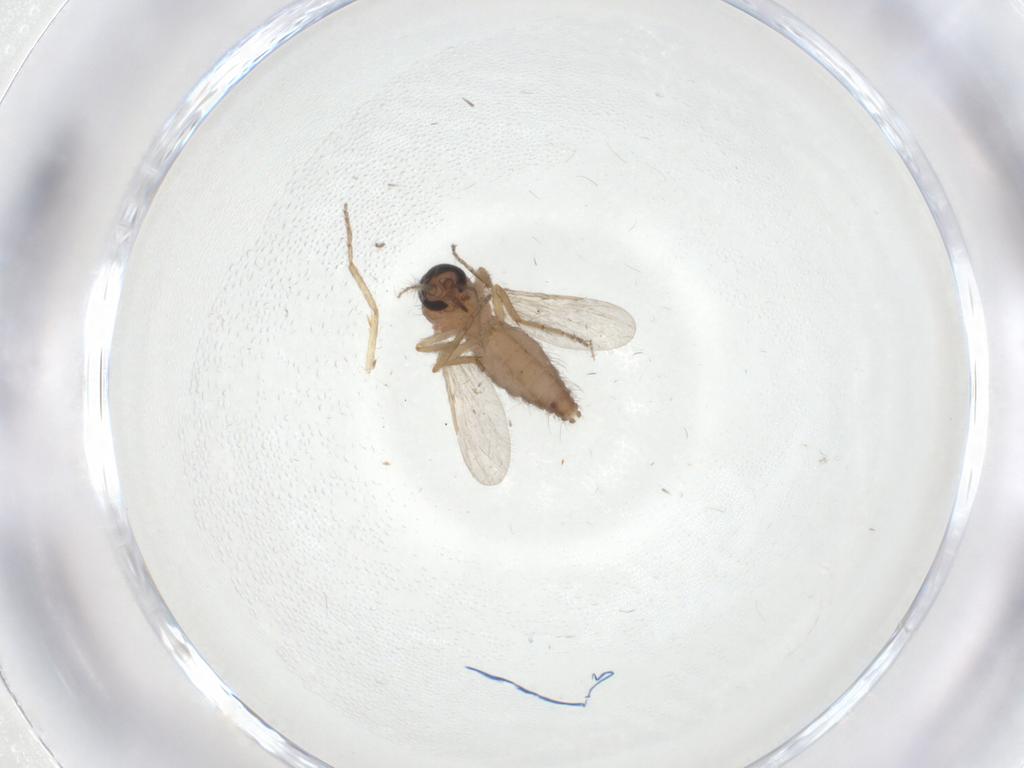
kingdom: Animalia
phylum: Arthropoda
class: Insecta
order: Diptera
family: Ceratopogonidae
